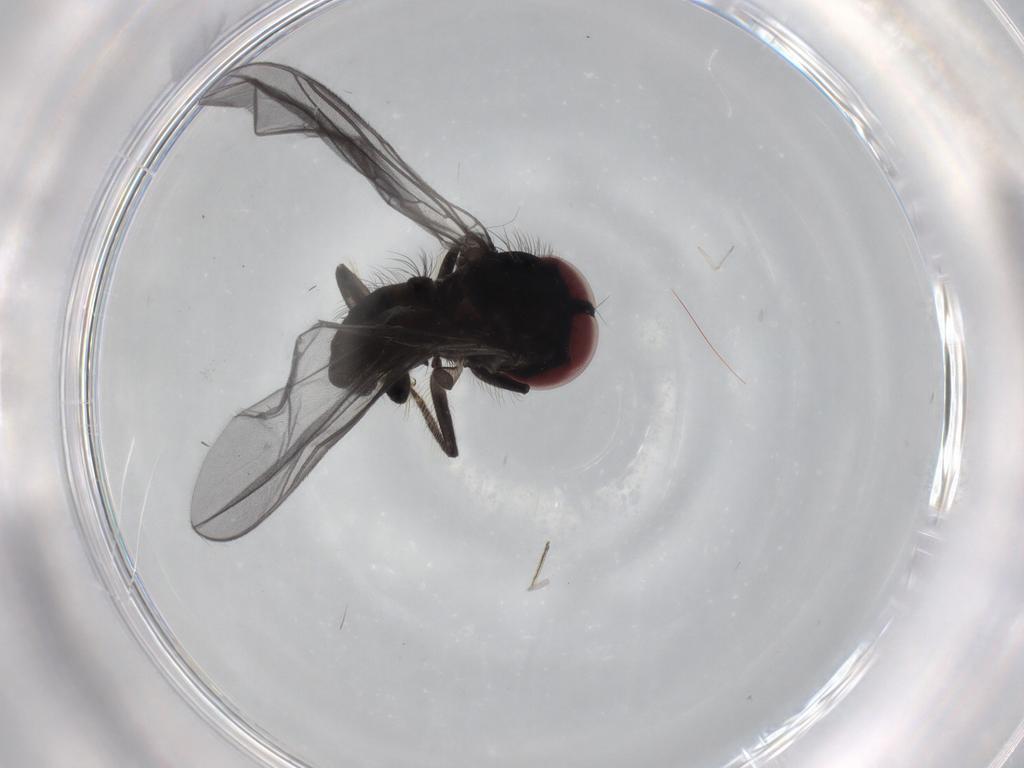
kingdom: Animalia
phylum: Arthropoda
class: Insecta
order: Diptera
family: Pipunculidae
